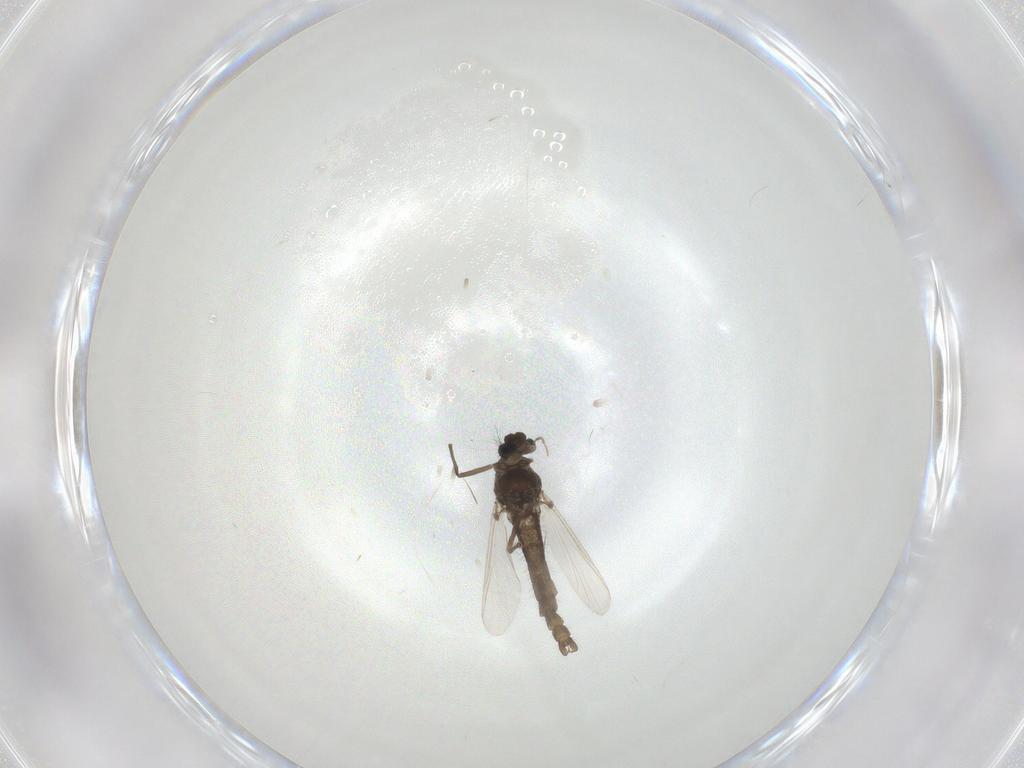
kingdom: Animalia
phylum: Arthropoda
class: Insecta
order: Diptera
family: Chironomidae
